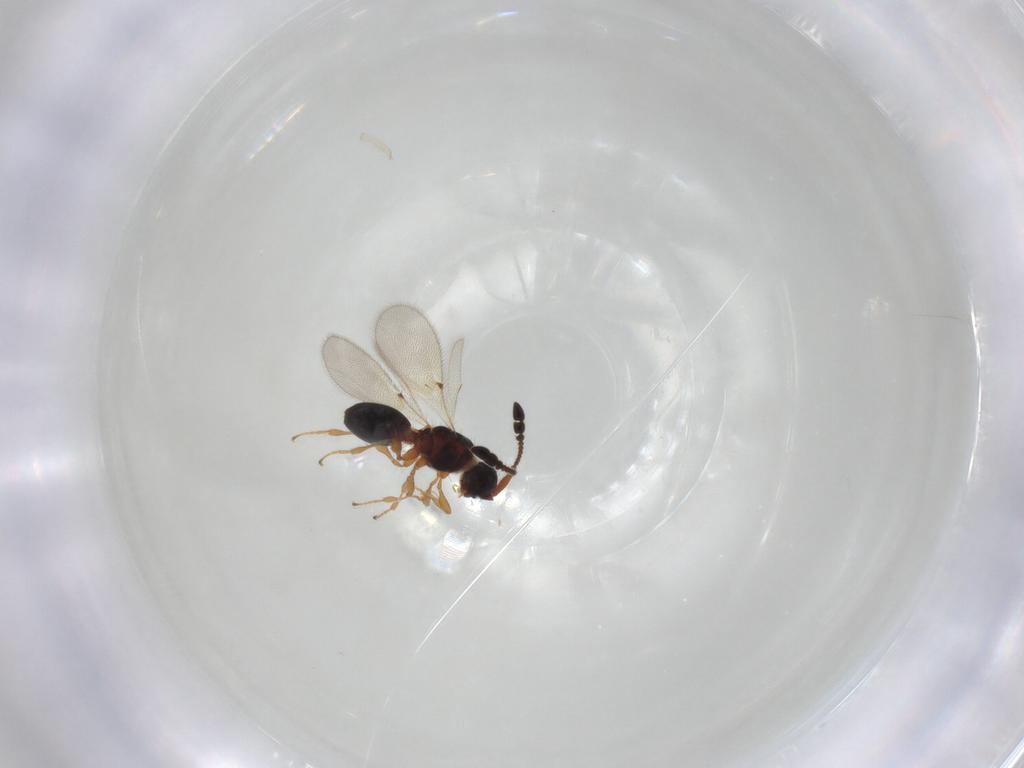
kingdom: Animalia
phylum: Arthropoda
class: Insecta
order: Hymenoptera
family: Diapriidae
